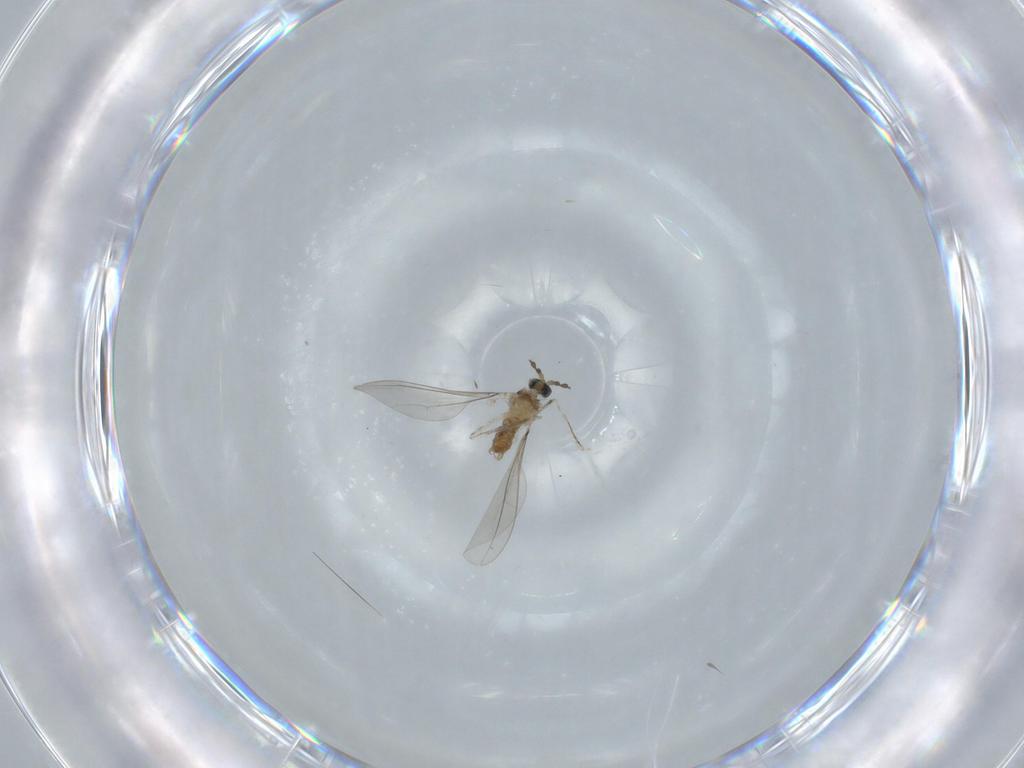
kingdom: Animalia
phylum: Arthropoda
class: Insecta
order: Diptera
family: Cecidomyiidae
